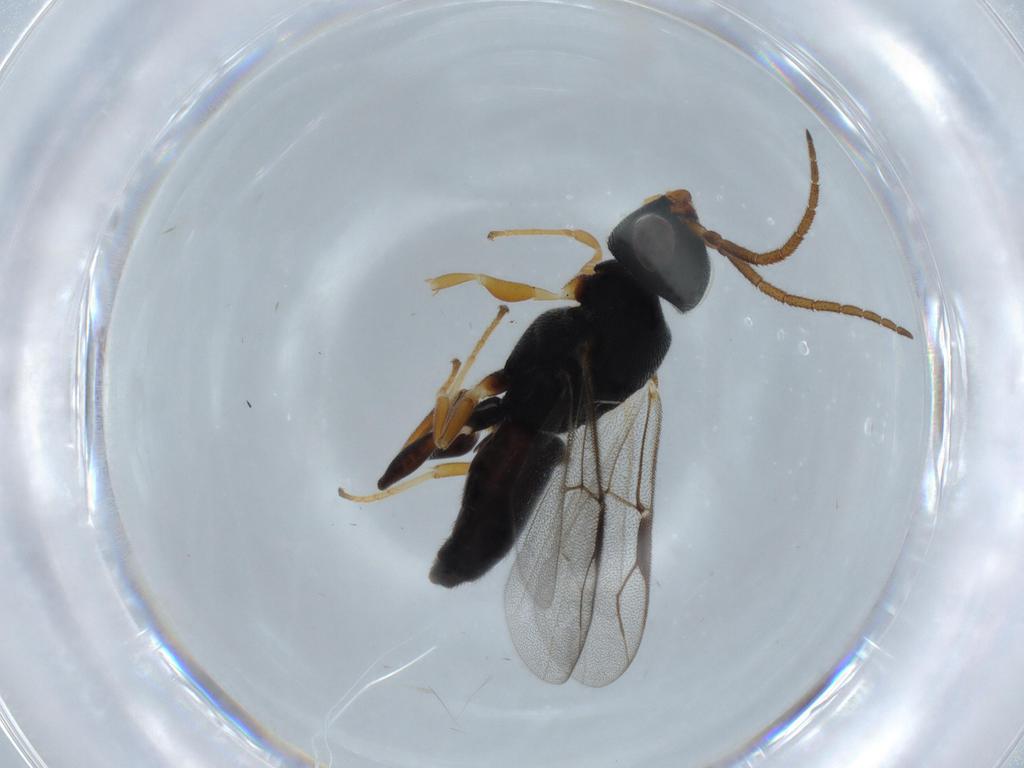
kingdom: Animalia
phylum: Arthropoda
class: Insecta
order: Hymenoptera
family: Dryinidae
